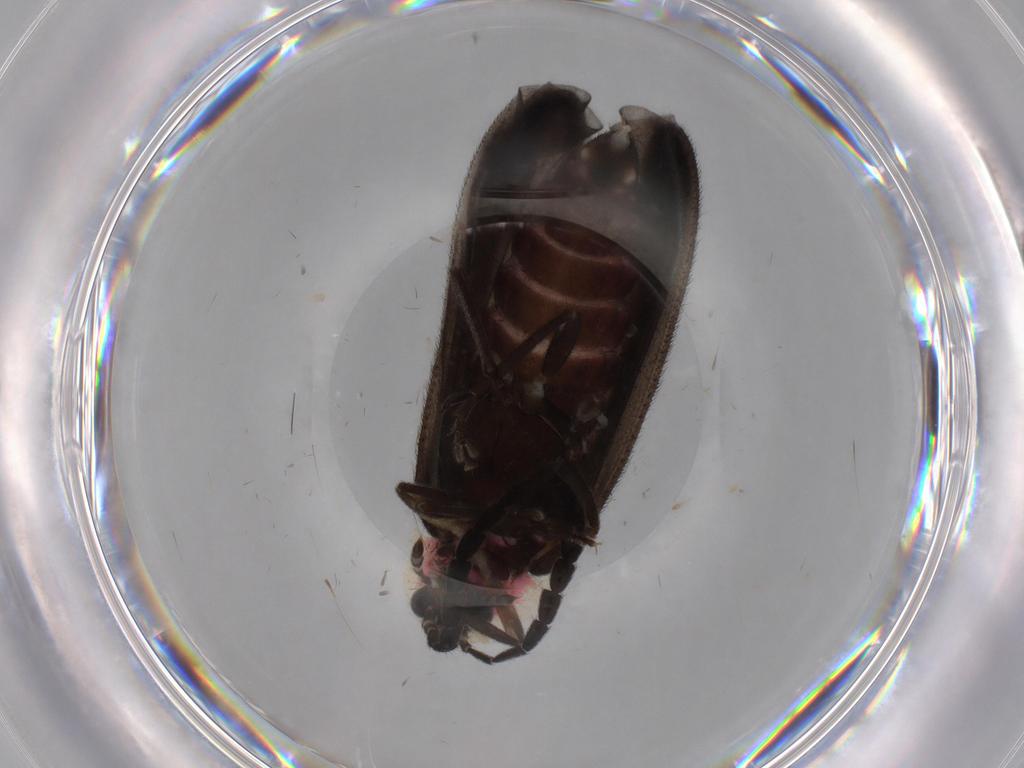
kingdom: Animalia
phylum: Arthropoda
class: Insecta
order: Coleoptera
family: Lampyridae
